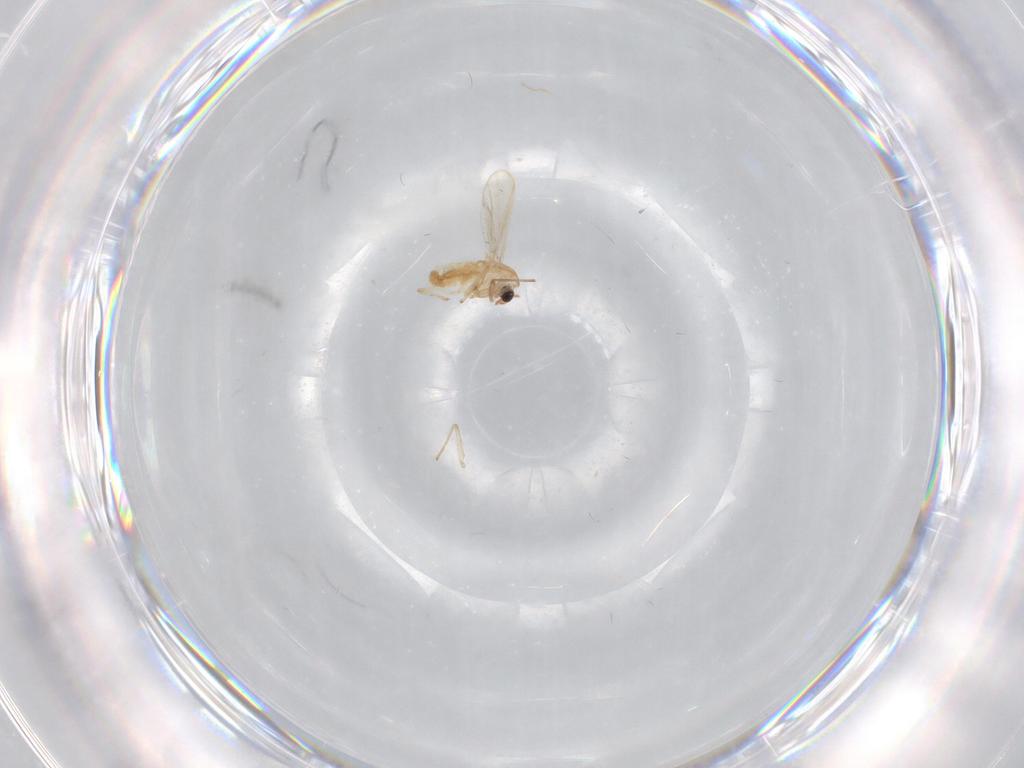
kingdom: Animalia
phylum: Arthropoda
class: Insecta
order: Diptera
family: Chironomidae
